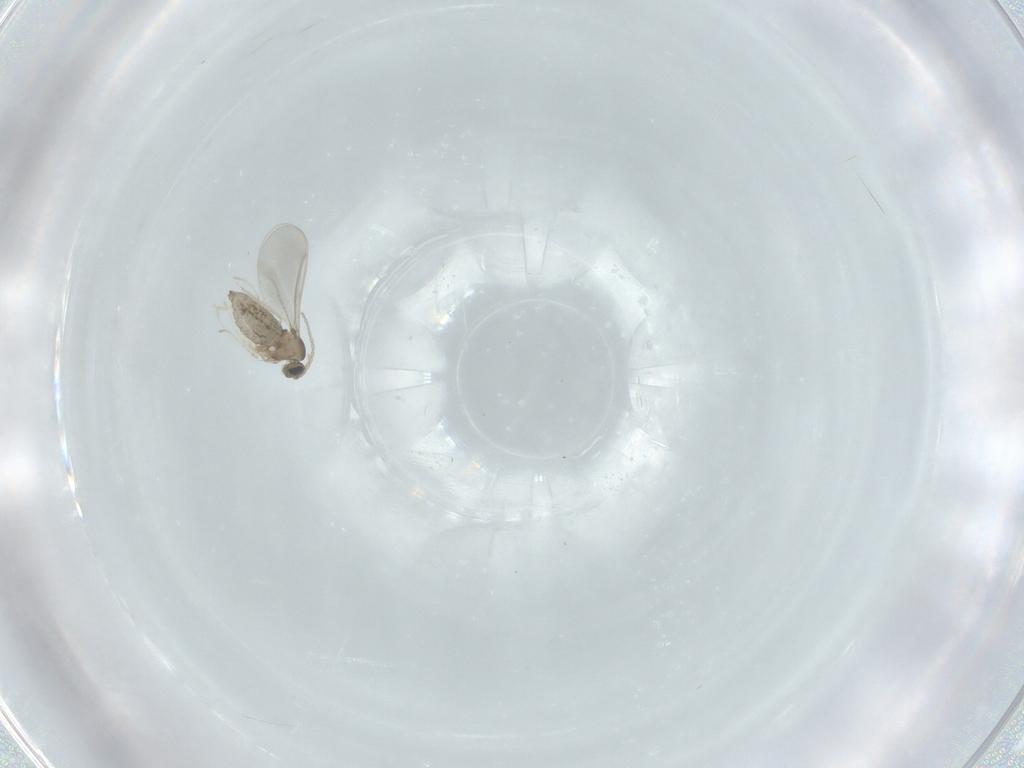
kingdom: Animalia
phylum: Arthropoda
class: Insecta
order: Diptera
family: Cecidomyiidae
